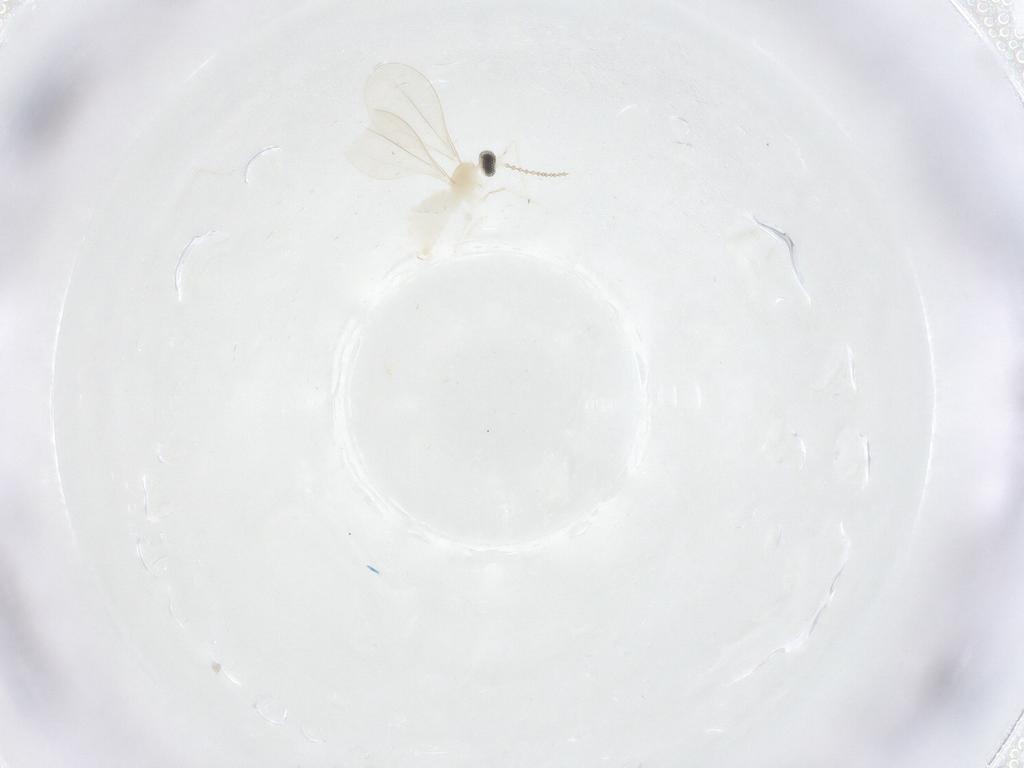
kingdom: Animalia
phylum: Arthropoda
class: Insecta
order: Diptera
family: Cecidomyiidae
